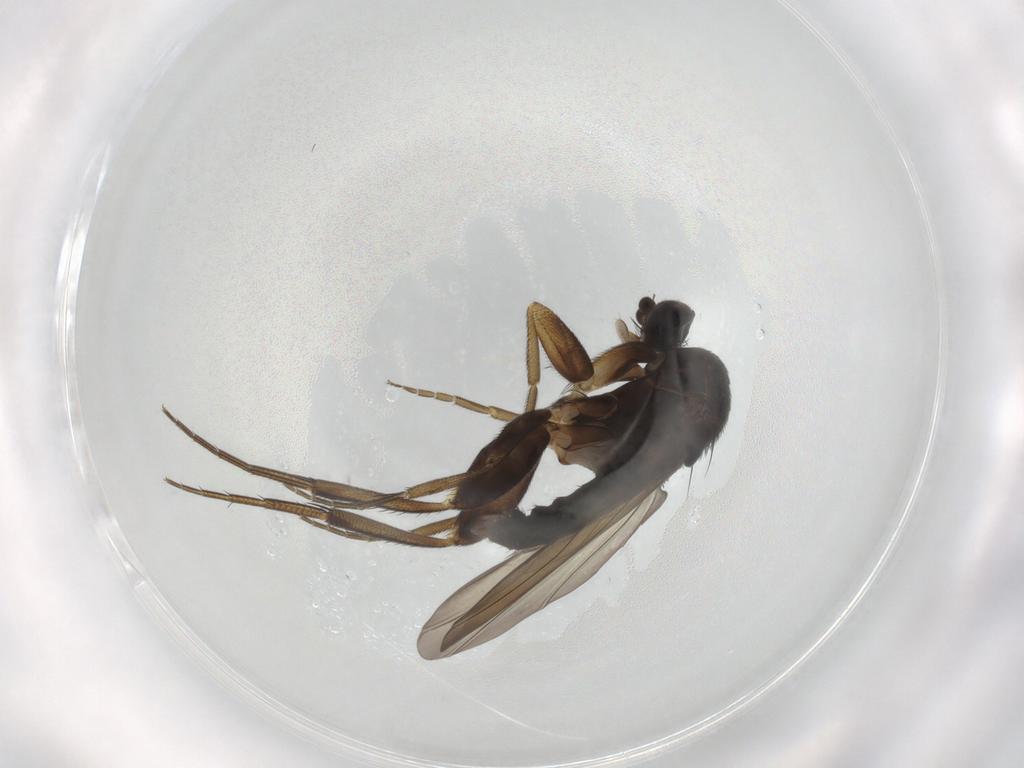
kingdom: Animalia
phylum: Arthropoda
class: Insecta
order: Diptera
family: Phoridae
